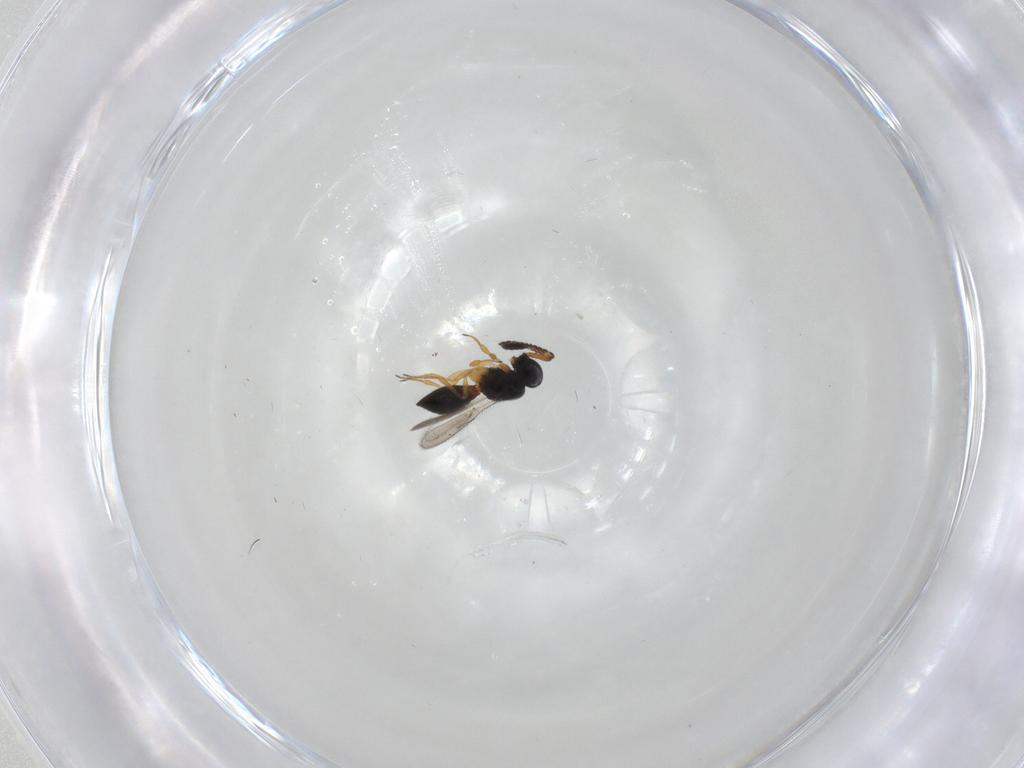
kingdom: Animalia
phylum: Arthropoda
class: Insecta
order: Hymenoptera
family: Scelionidae
